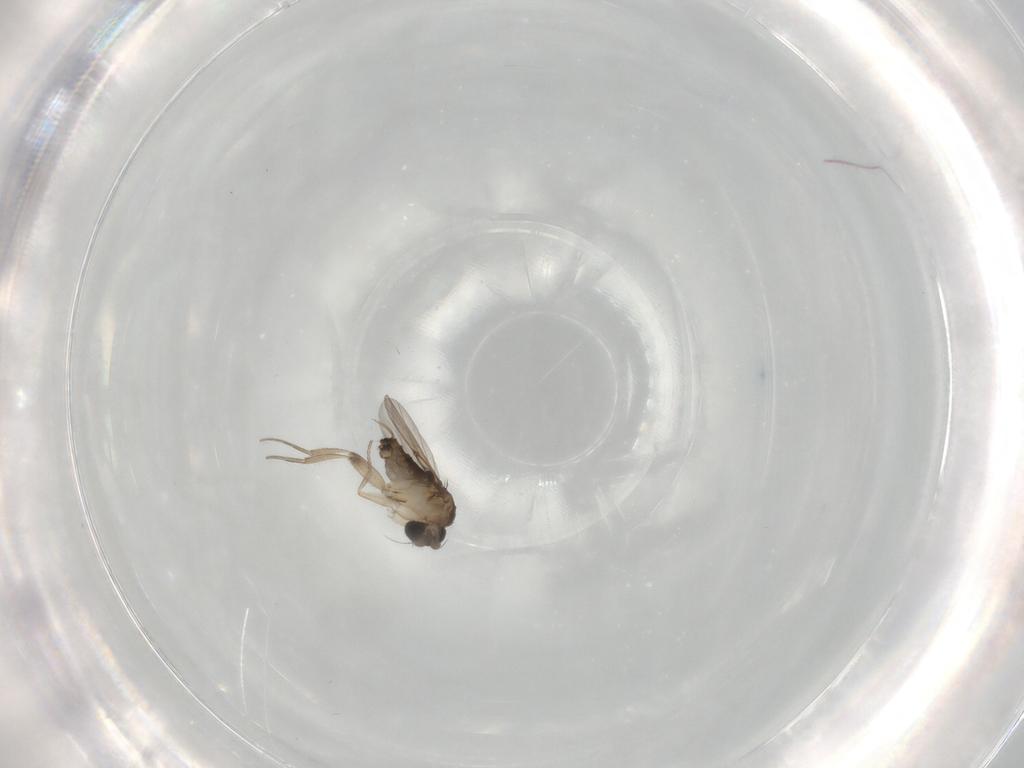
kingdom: Animalia
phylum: Arthropoda
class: Insecta
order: Diptera
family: Phoridae
